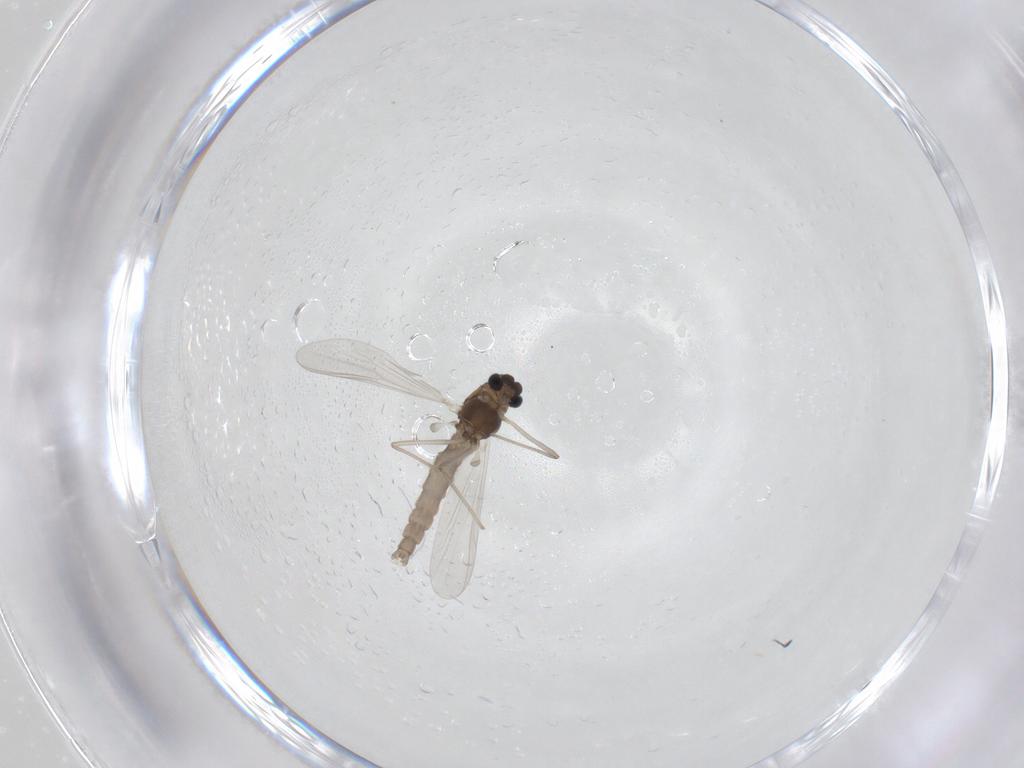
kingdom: Animalia
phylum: Arthropoda
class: Insecta
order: Diptera
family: Chironomidae
